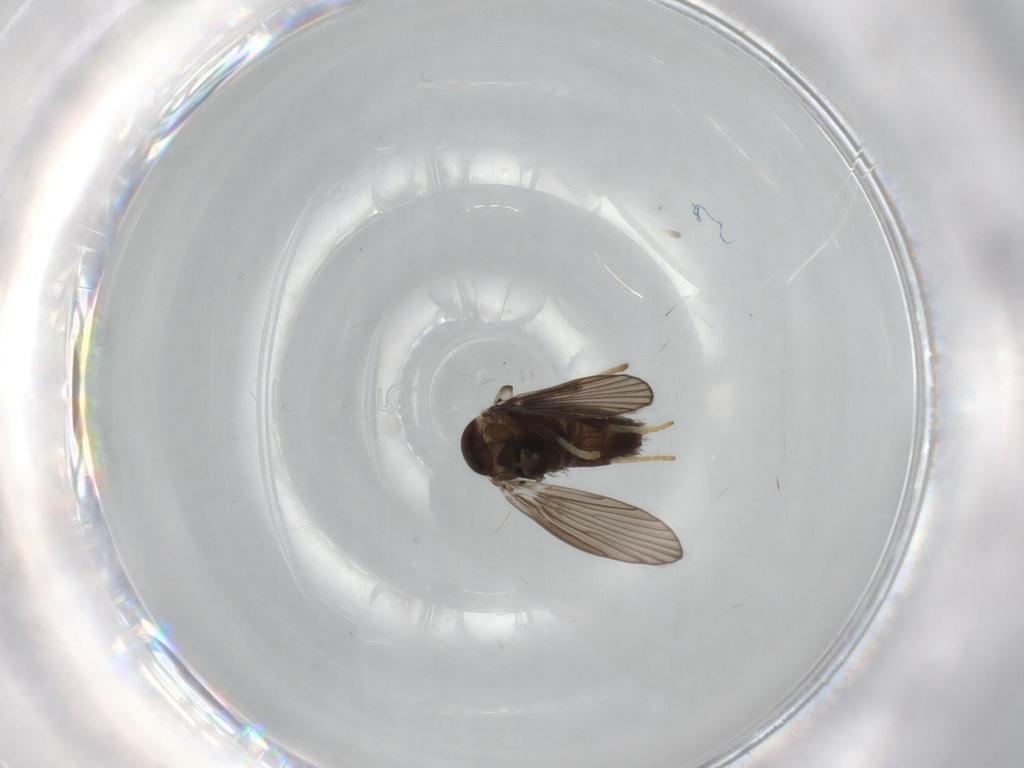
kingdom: Animalia
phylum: Arthropoda
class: Insecta
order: Diptera
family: Psychodidae
